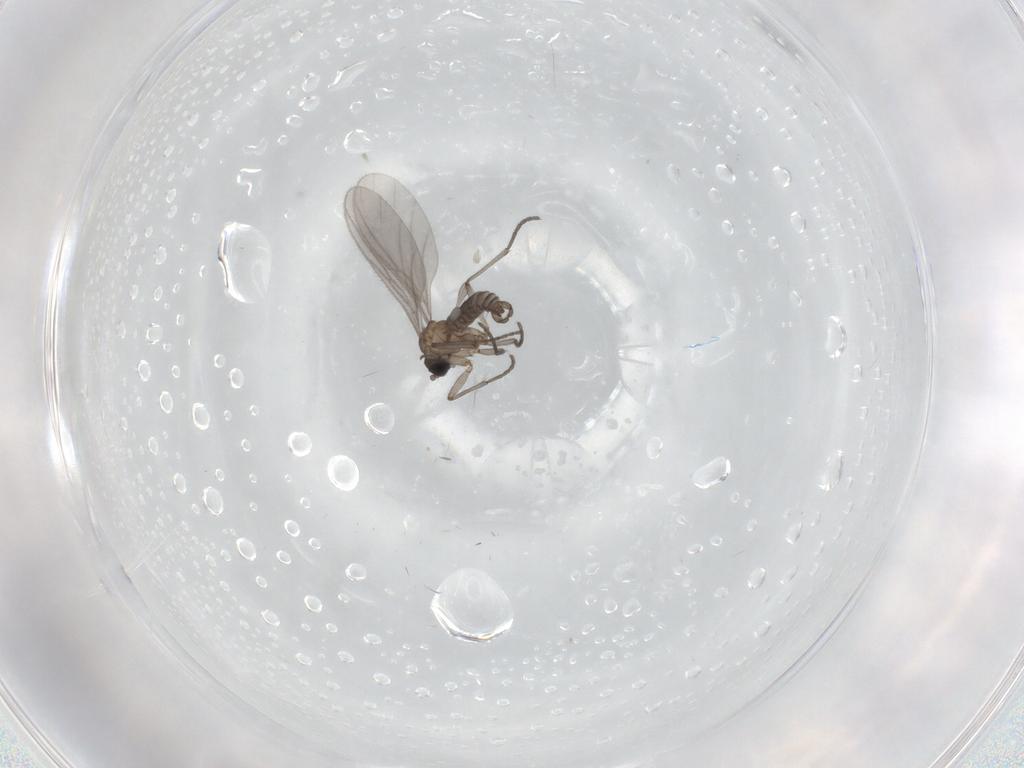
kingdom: Animalia
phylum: Arthropoda
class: Insecta
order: Diptera
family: Sciaridae
